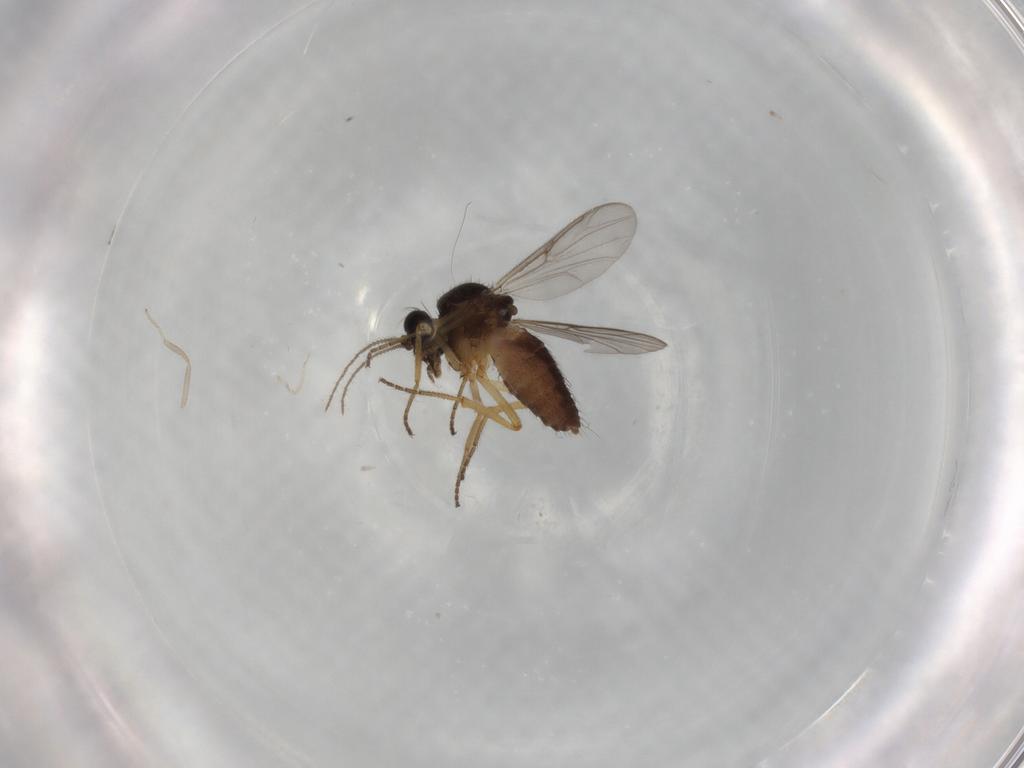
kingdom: Animalia
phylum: Arthropoda
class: Insecta
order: Diptera
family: Ceratopogonidae
